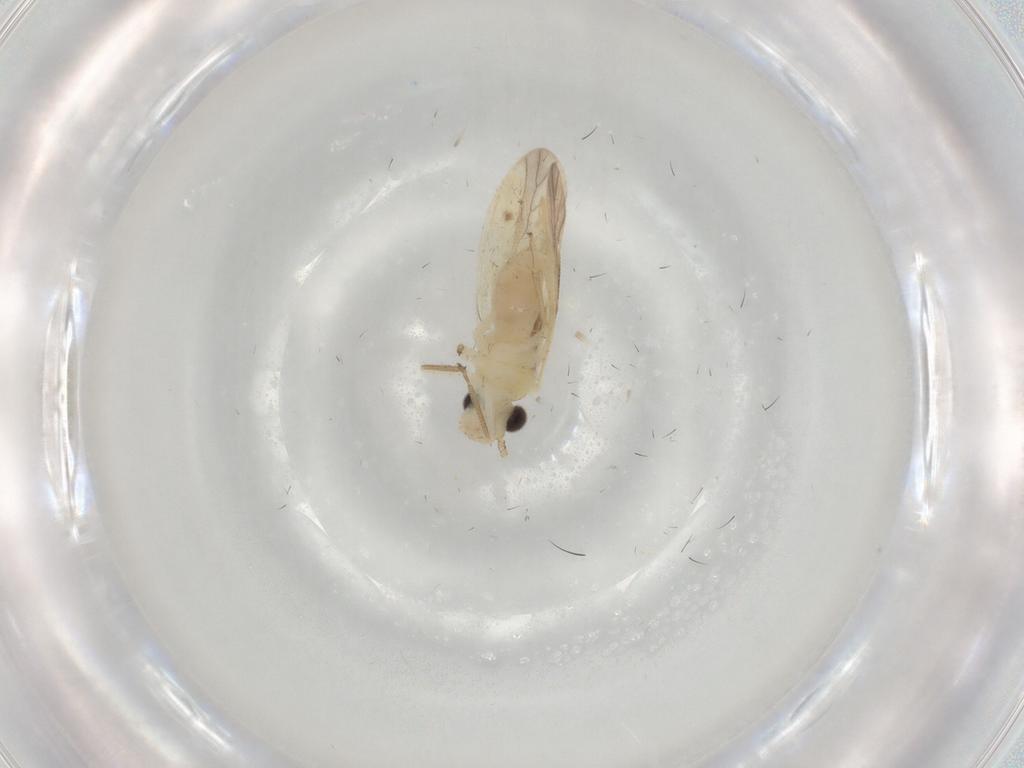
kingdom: Animalia
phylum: Arthropoda
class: Insecta
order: Psocodea
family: Caeciliusidae
